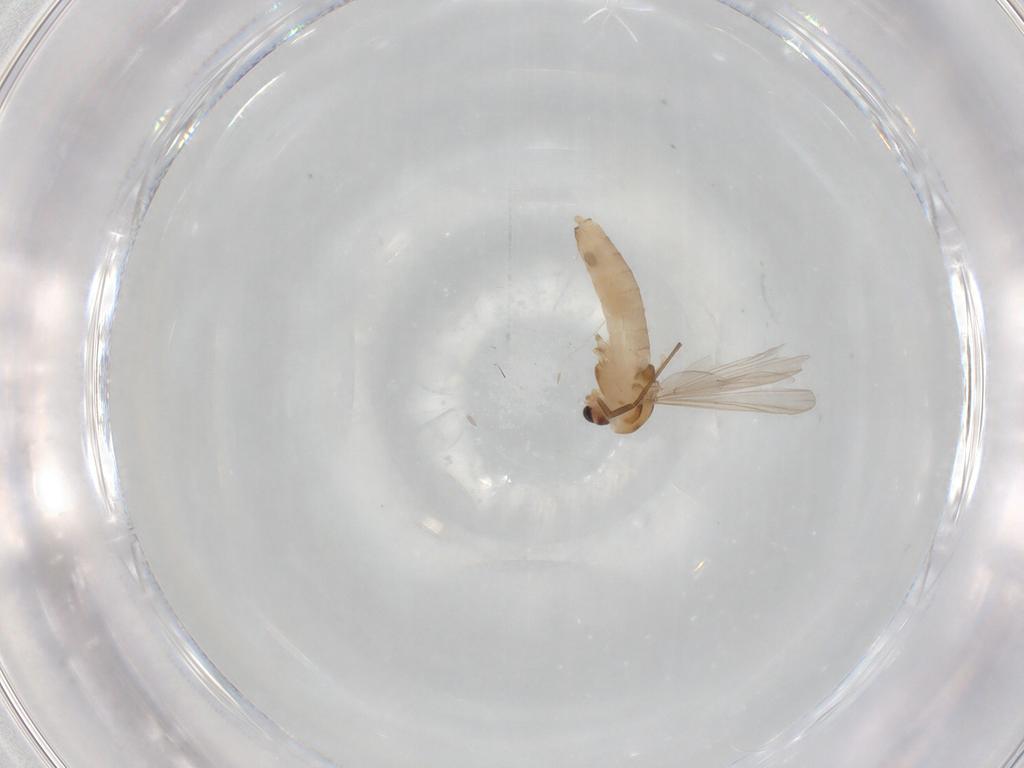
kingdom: Animalia
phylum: Arthropoda
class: Insecta
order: Diptera
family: Chironomidae
